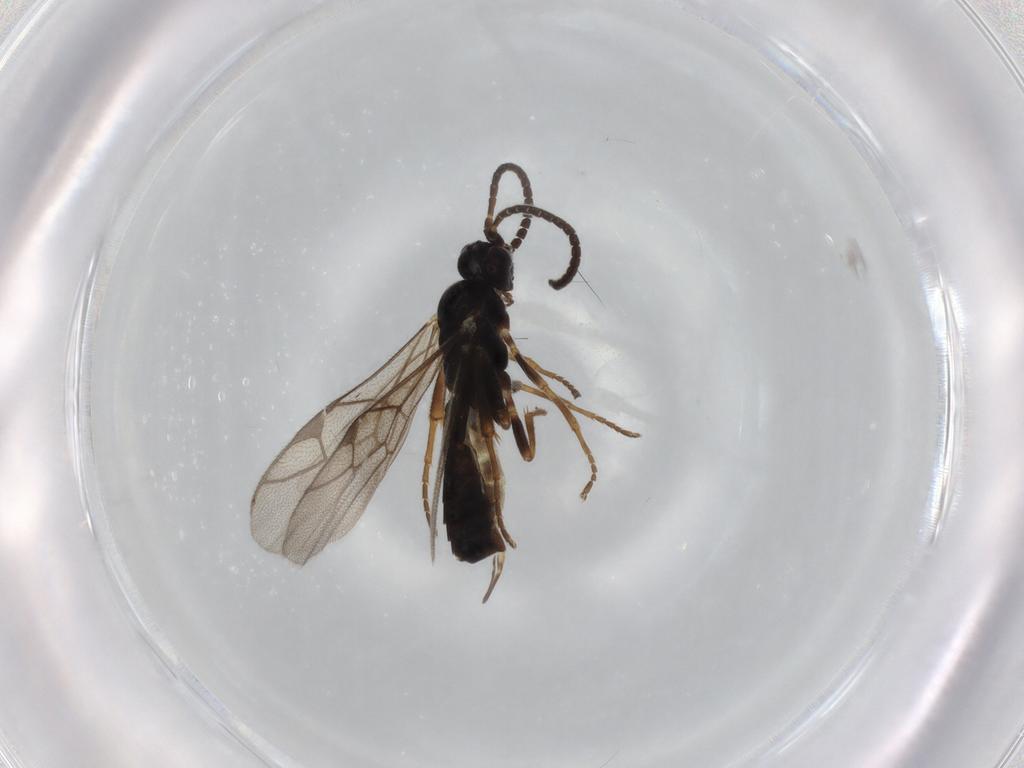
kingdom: Animalia
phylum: Arthropoda
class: Insecta
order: Hymenoptera
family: Ichneumonidae
